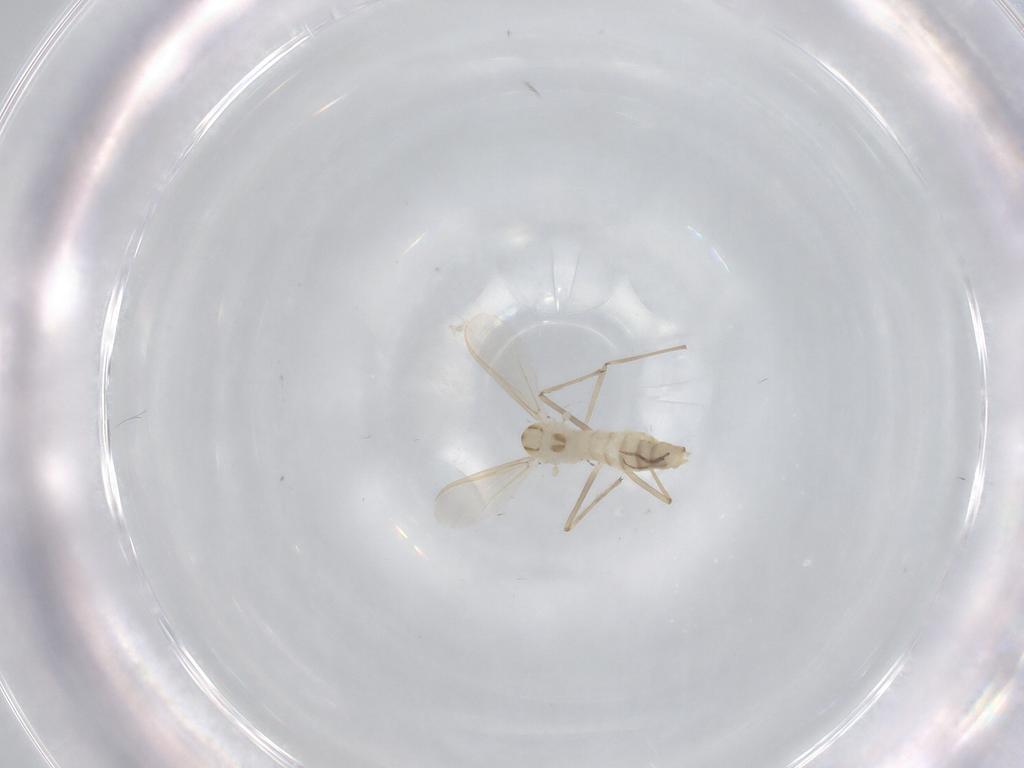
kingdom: Animalia
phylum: Arthropoda
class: Insecta
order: Diptera
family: Chironomidae
